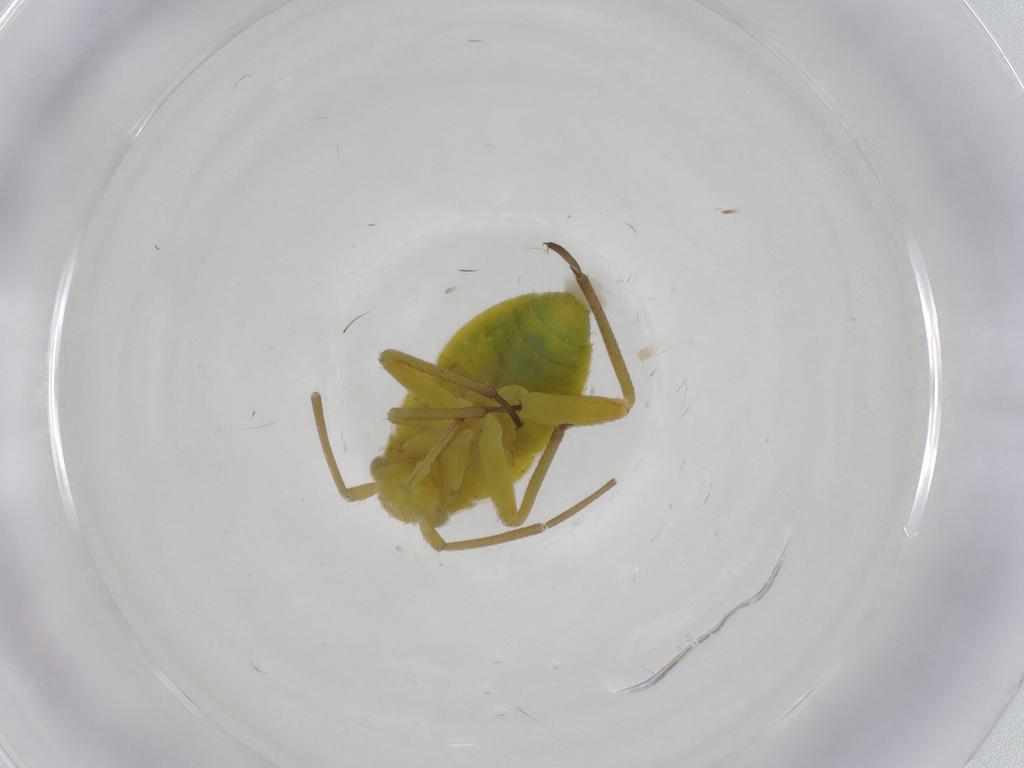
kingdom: Animalia
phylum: Arthropoda
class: Insecta
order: Hemiptera
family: Miridae
